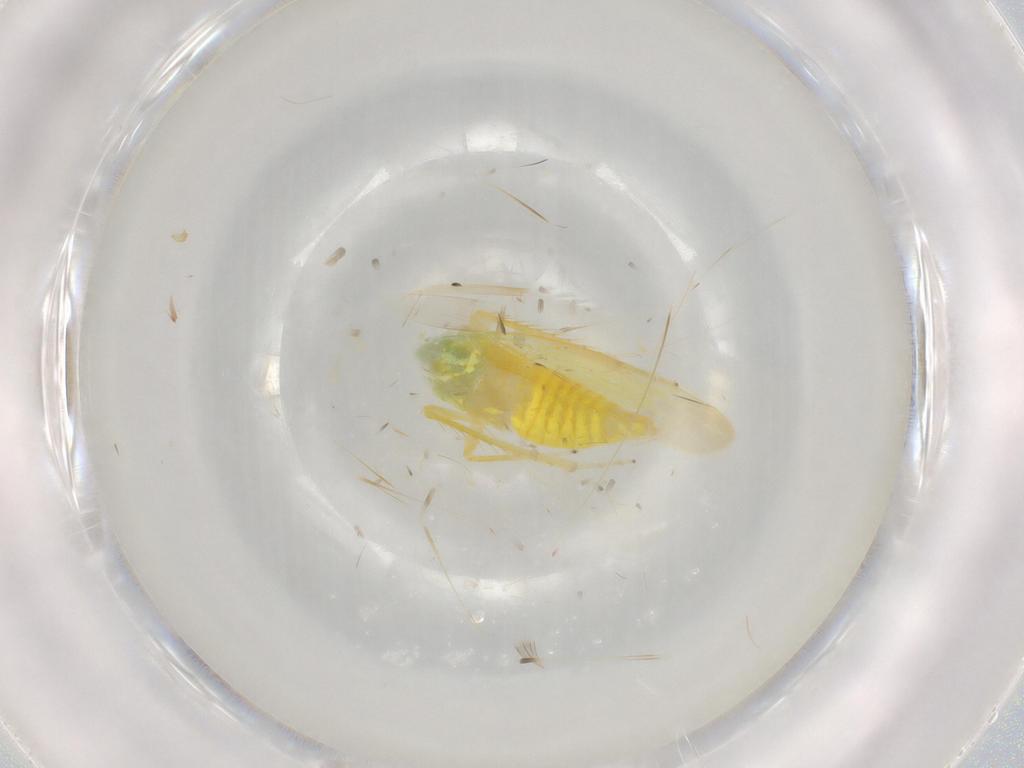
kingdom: Animalia
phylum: Arthropoda
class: Insecta
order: Hemiptera
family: Cicadellidae
